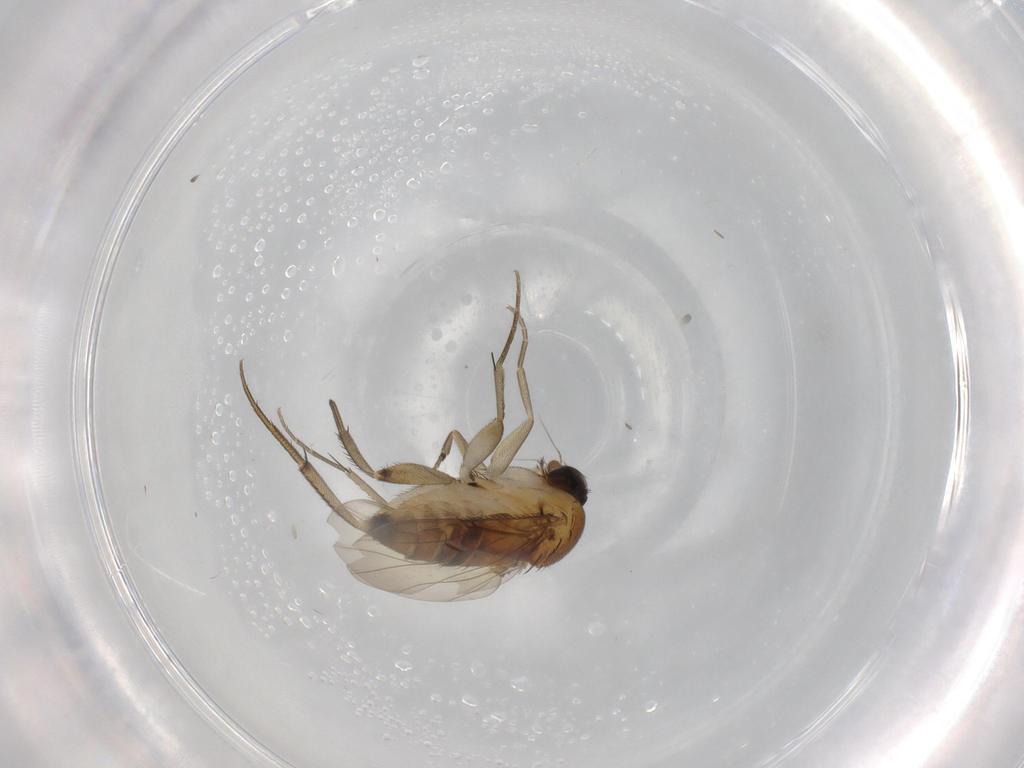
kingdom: Animalia
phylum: Arthropoda
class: Insecta
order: Diptera
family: Phoridae
